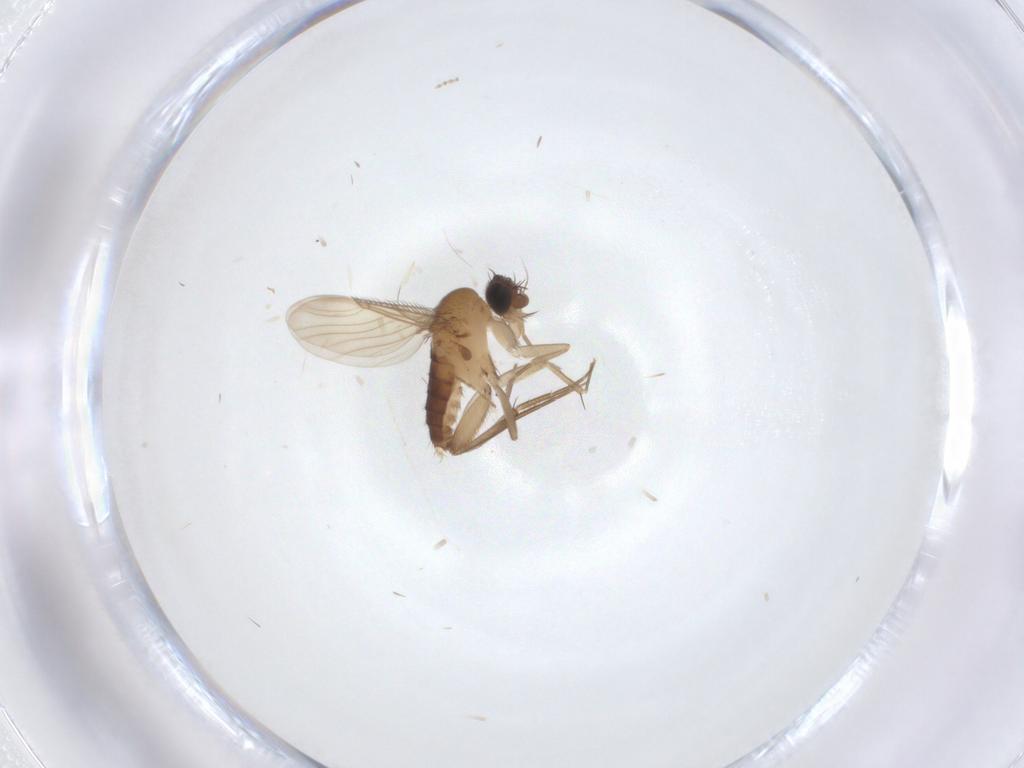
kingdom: Animalia
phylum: Arthropoda
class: Insecta
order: Diptera
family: Phoridae
